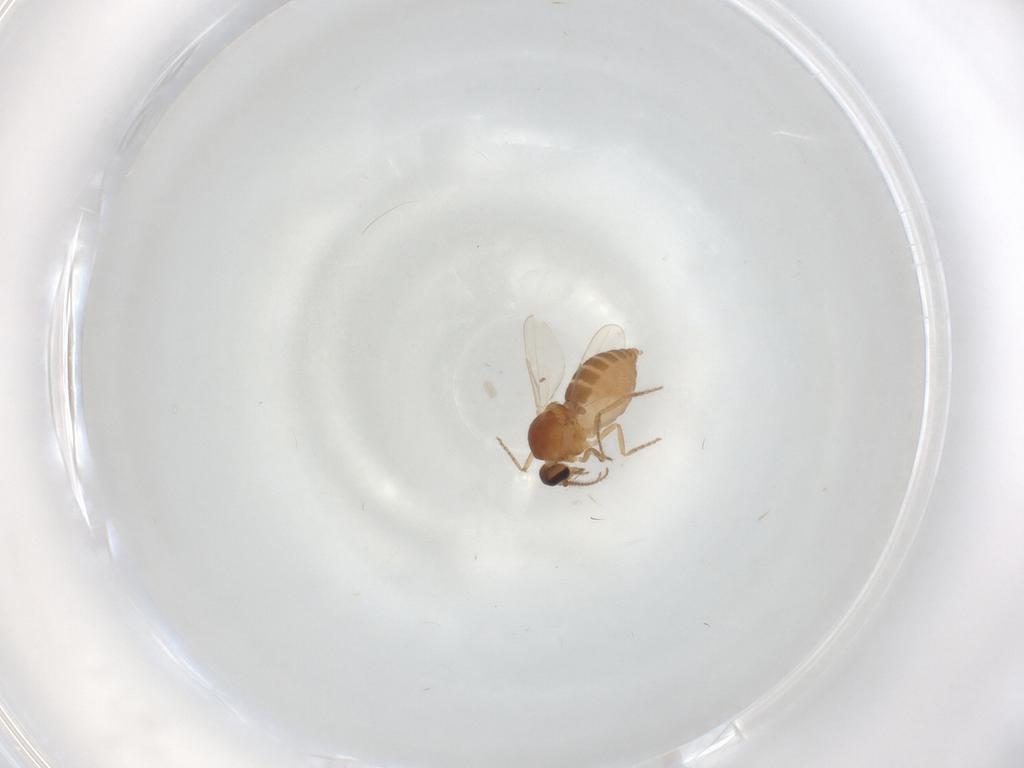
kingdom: Animalia
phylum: Arthropoda
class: Insecta
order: Diptera
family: Ceratopogonidae
